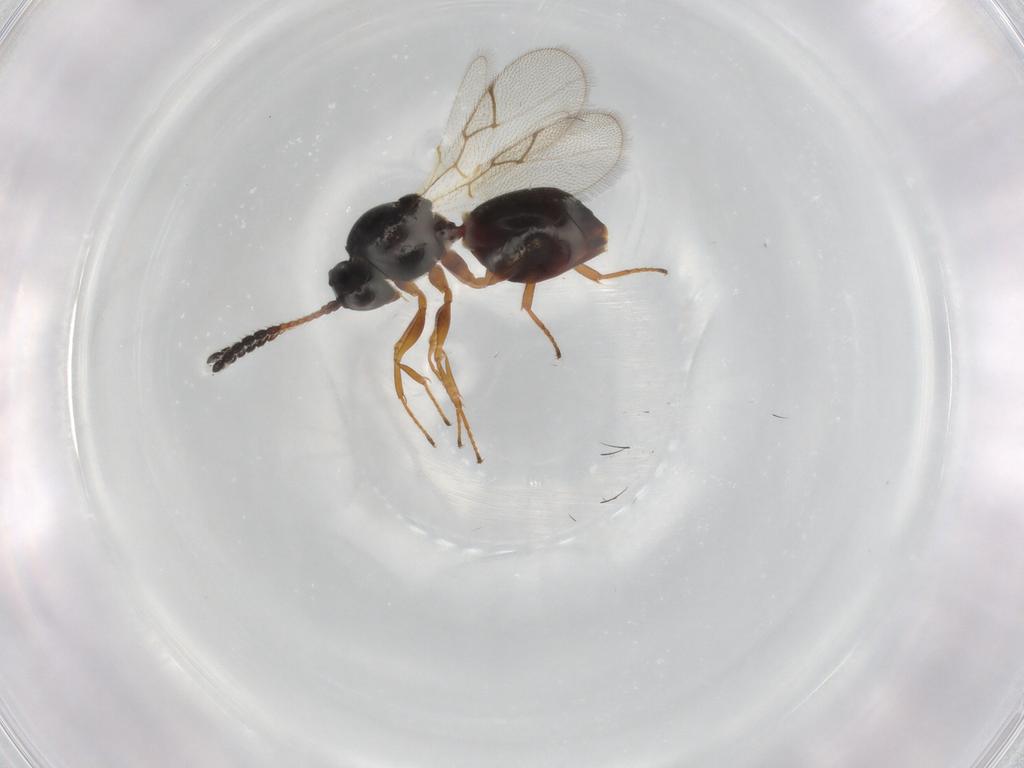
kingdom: Animalia
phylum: Arthropoda
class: Insecta
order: Hymenoptera
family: Figitidae
